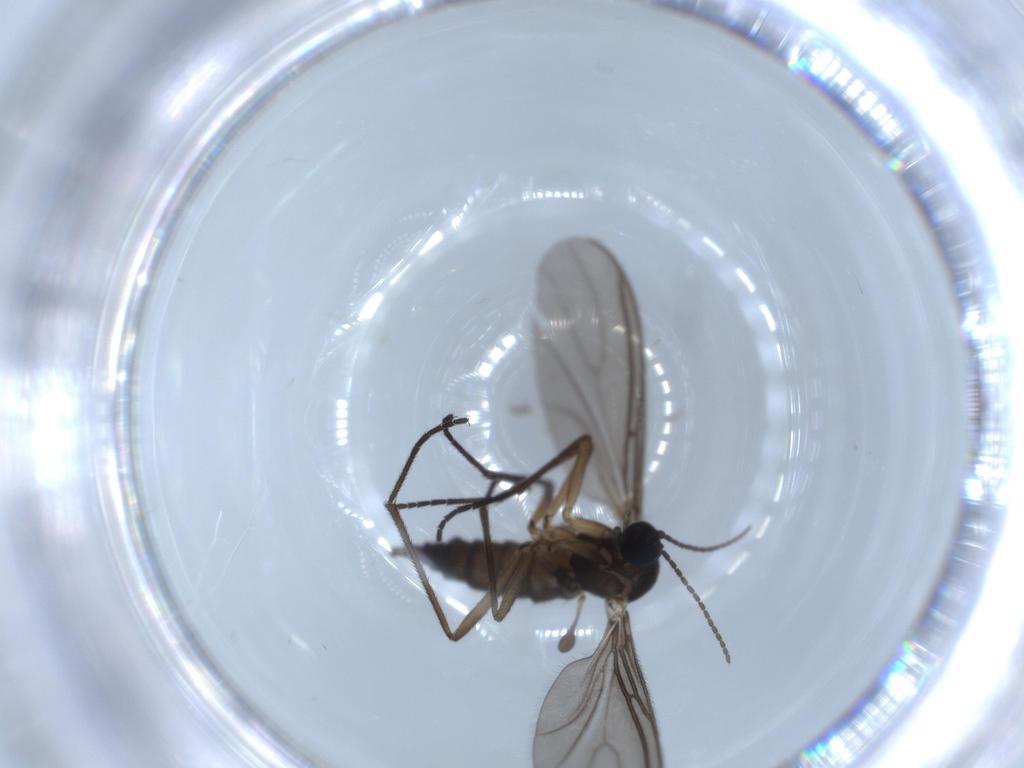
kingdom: Animalia
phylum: Arthropoda
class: Insecta
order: Diptera
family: Sciaridae
